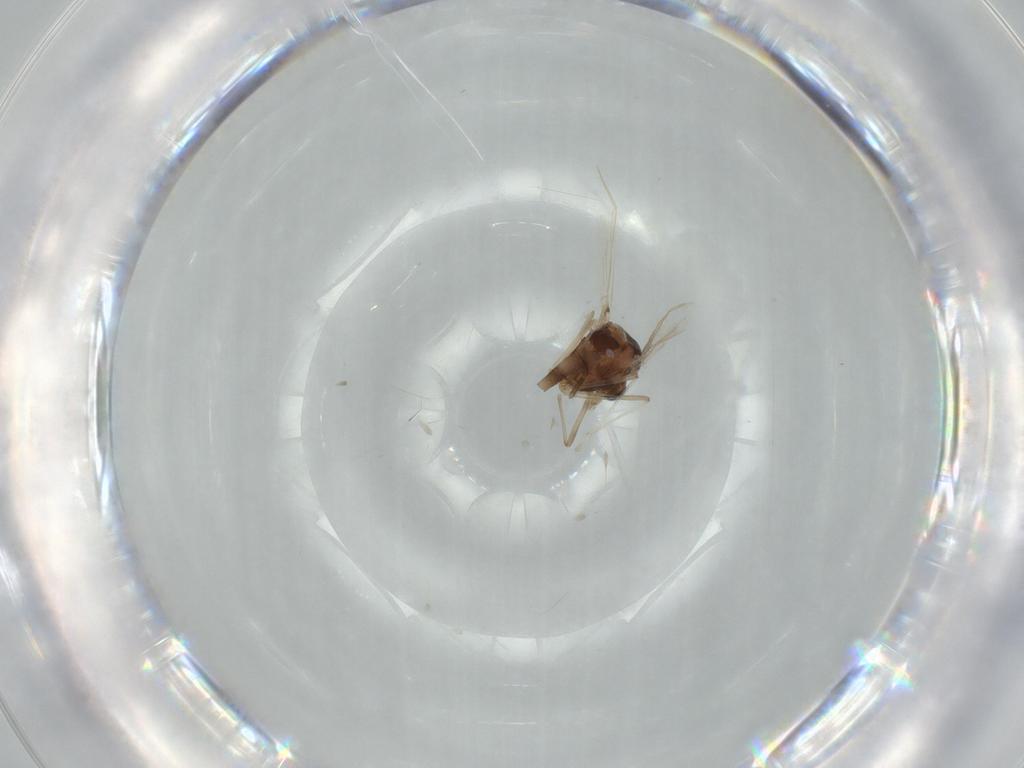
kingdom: Animalia
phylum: Arthropoda
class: Insecta
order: Diptera
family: Chironomidae
